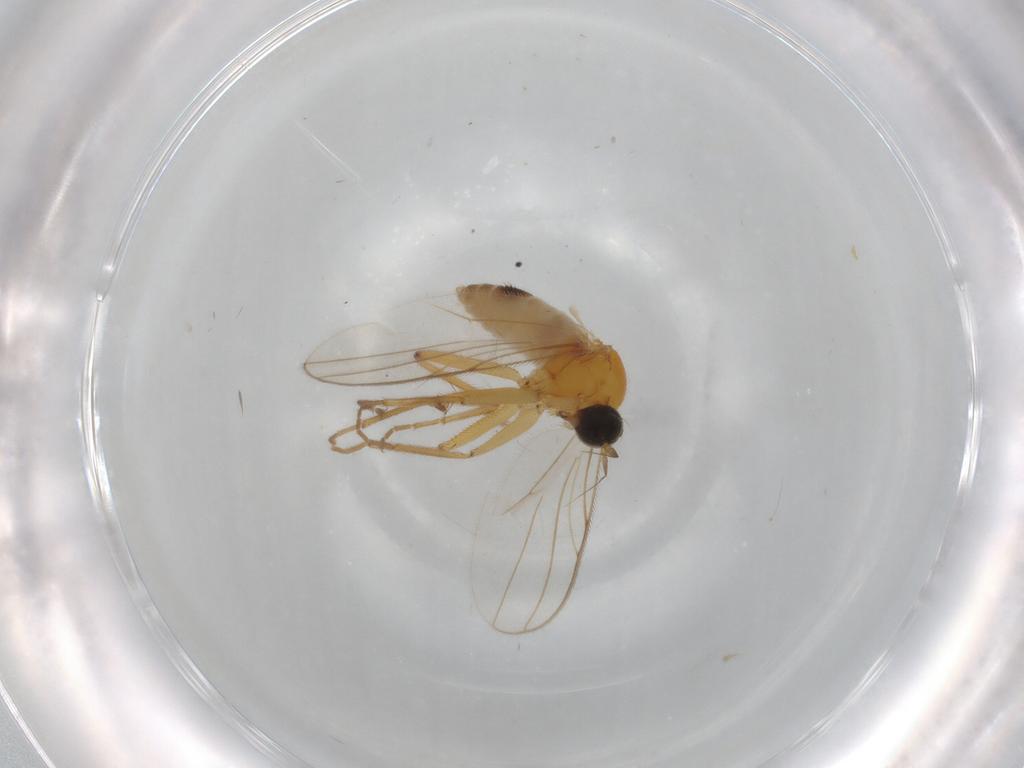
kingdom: Animalia
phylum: Arthropoda
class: Insecta
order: Diptera
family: Hybotidae
